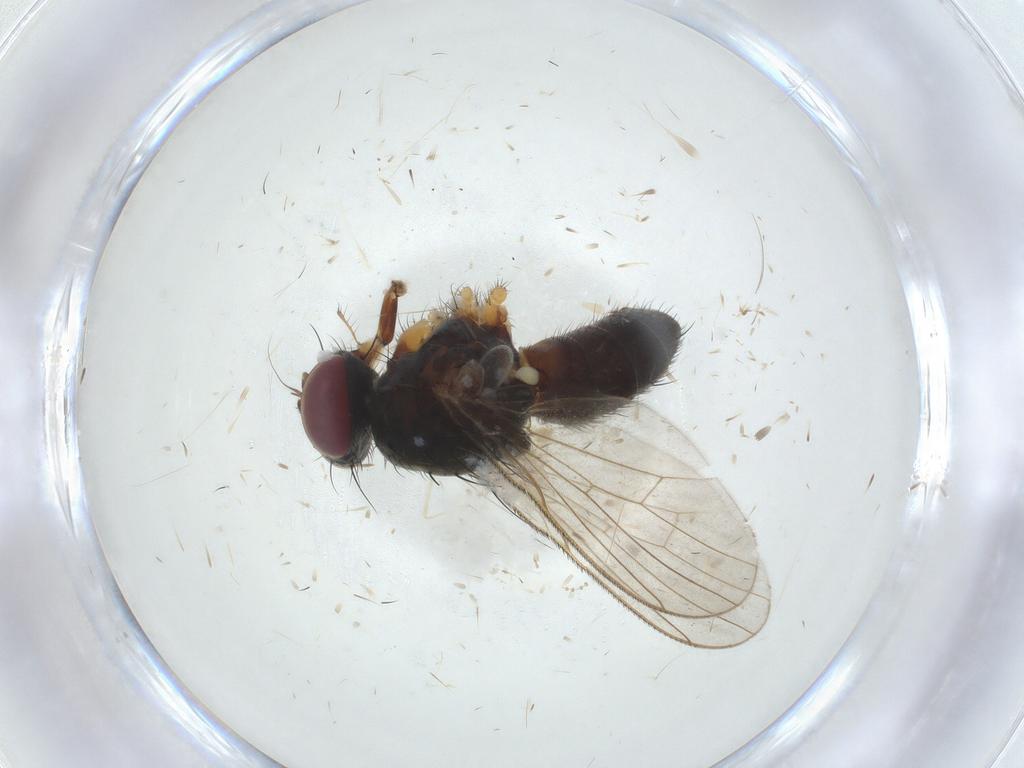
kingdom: Animalia
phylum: Arthropoda
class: Insecta
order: Diptera
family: Muscidae
